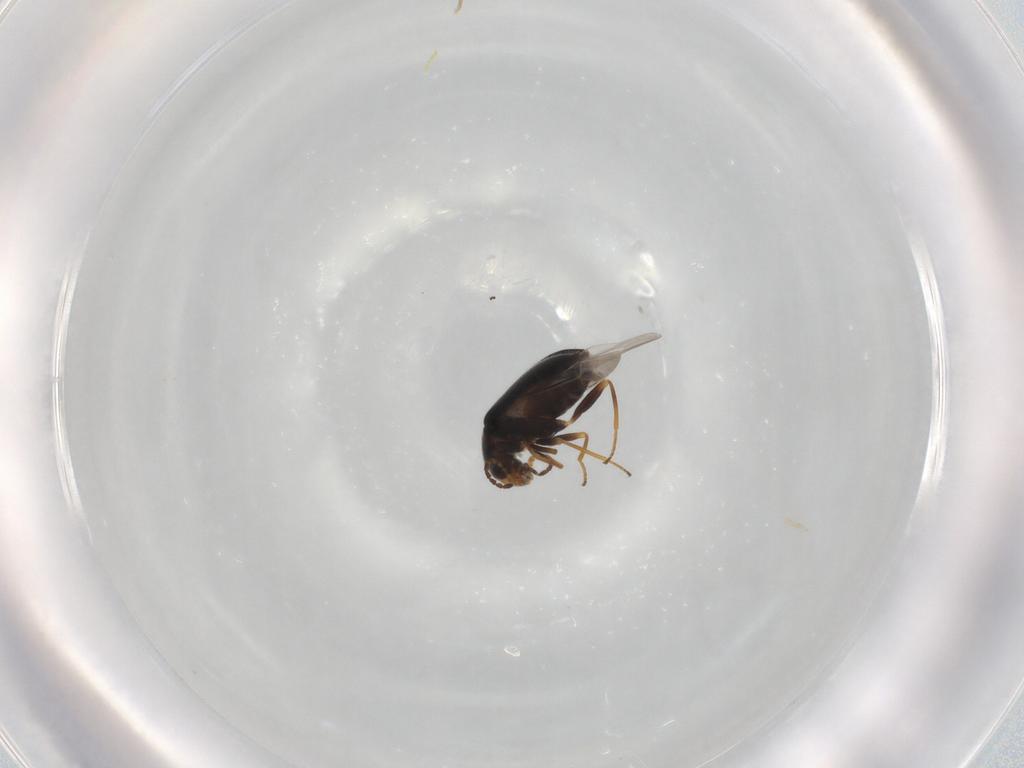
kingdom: Animalia
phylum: Arthropoda
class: Insecta
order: Coleoptera
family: Melyridae
